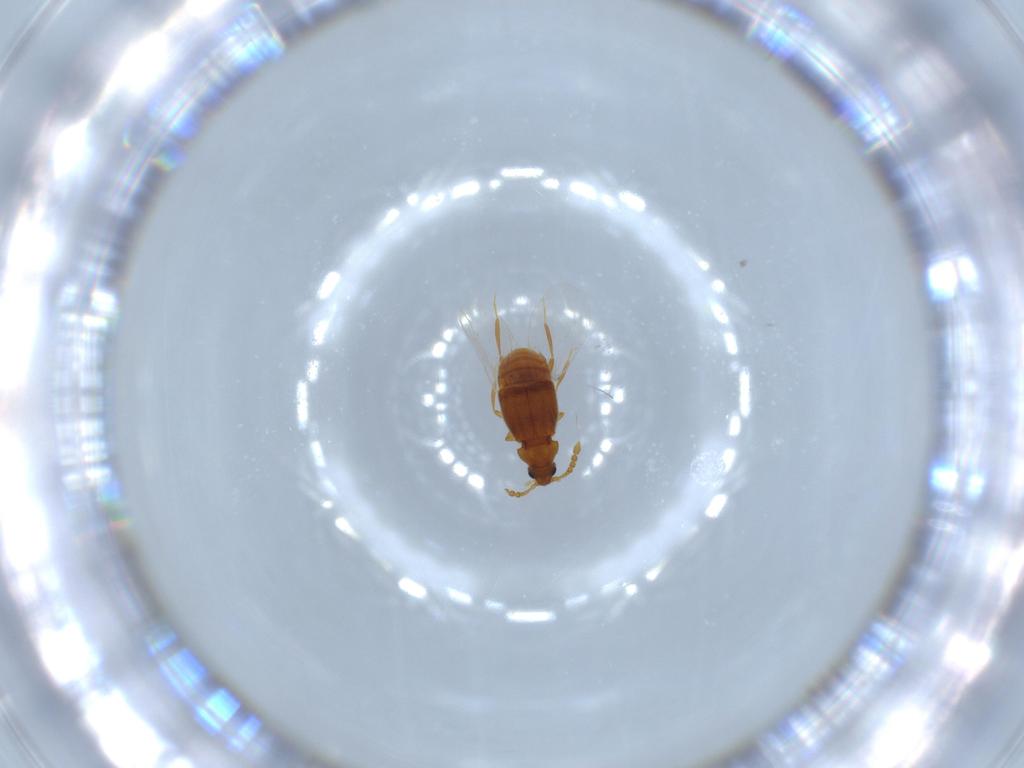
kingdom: Animalia
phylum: Arthropoda
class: Insecta
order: Coleoptera
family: Staphylinidae
